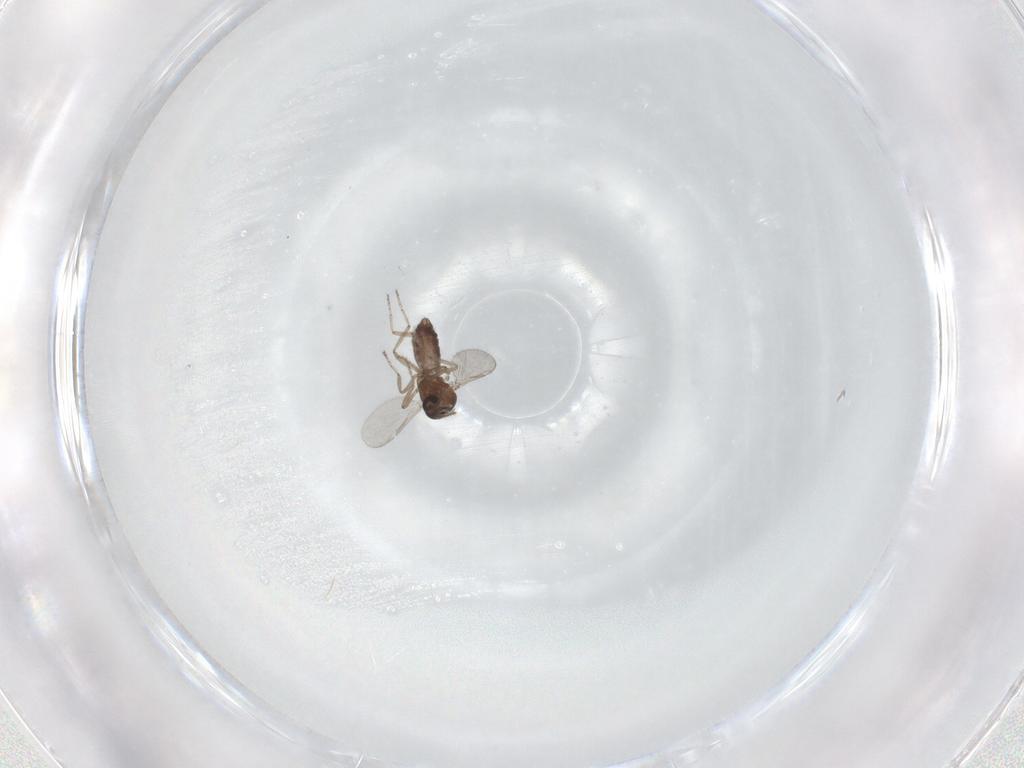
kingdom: Animalia
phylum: Arthropoda
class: Insecta
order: Diptera
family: Ceratopogonidae
